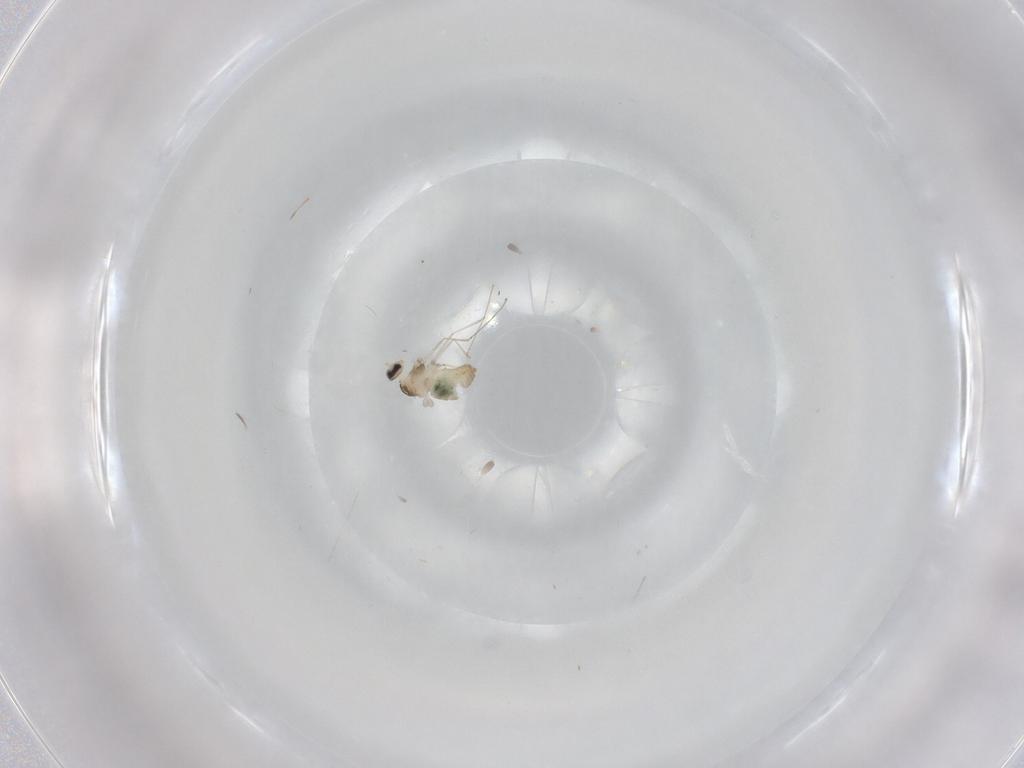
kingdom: Animalia
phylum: Arthropoda
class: Insecta
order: Diptera
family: Cecidomyiidae
